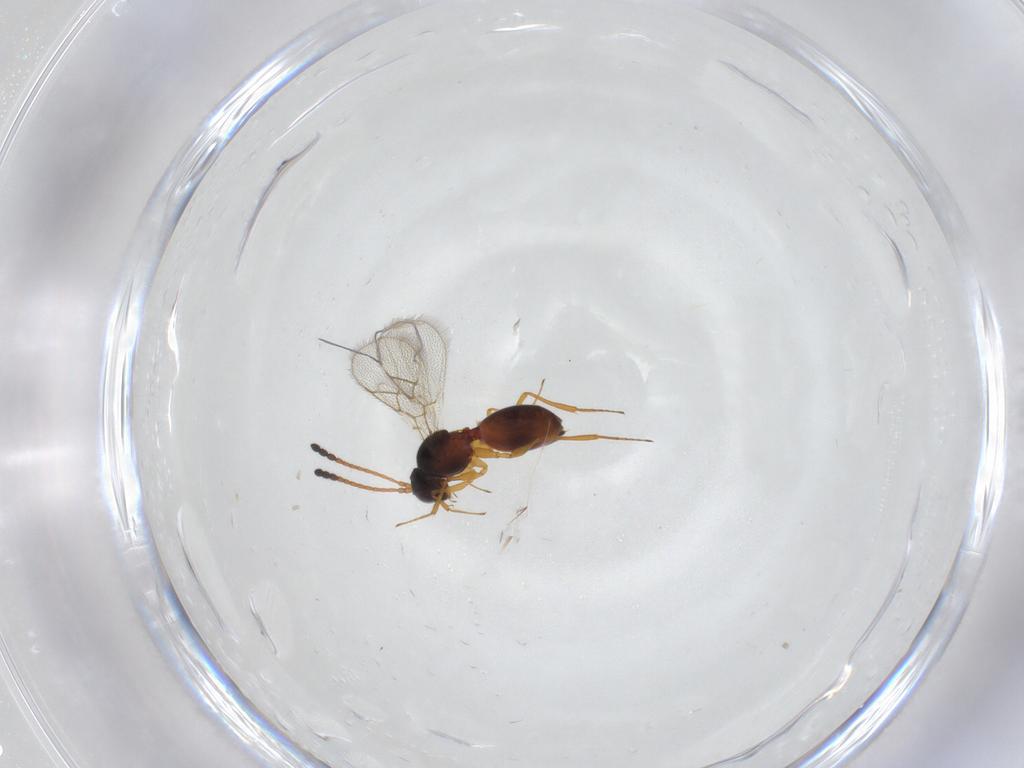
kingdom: Animalia
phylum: Arthropoda
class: Insecta
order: Hymenoptera
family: Figitidae
